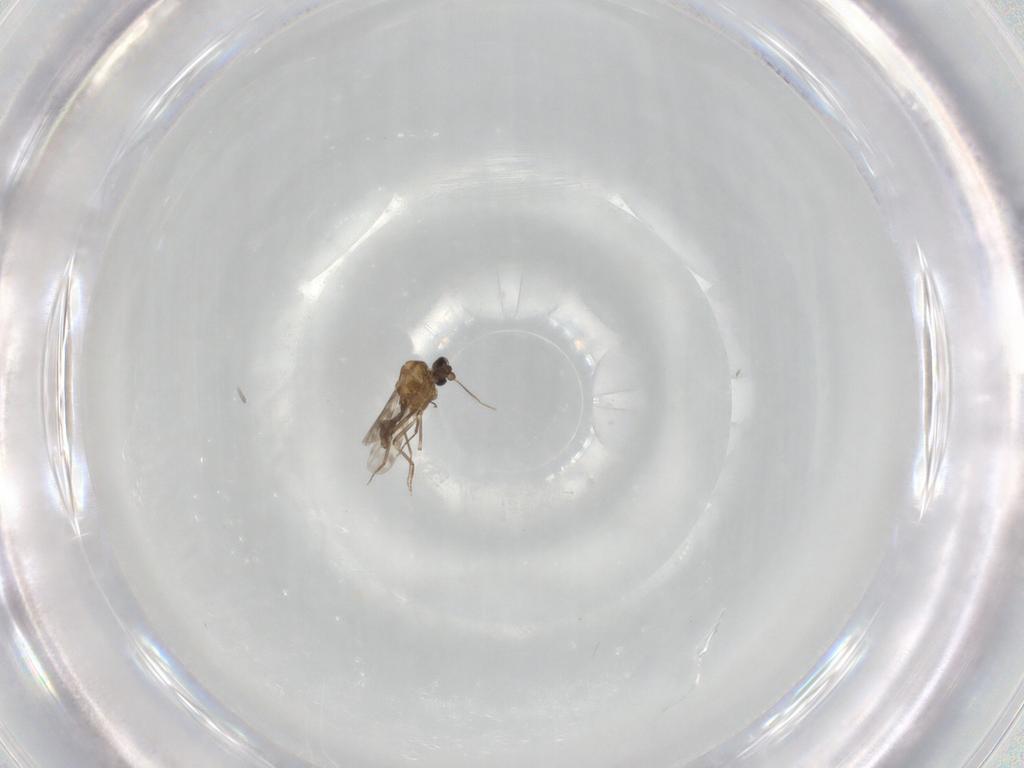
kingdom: Animalia
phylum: Arthropoda
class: Insecta
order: Diptera
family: Ceratopogonidae
